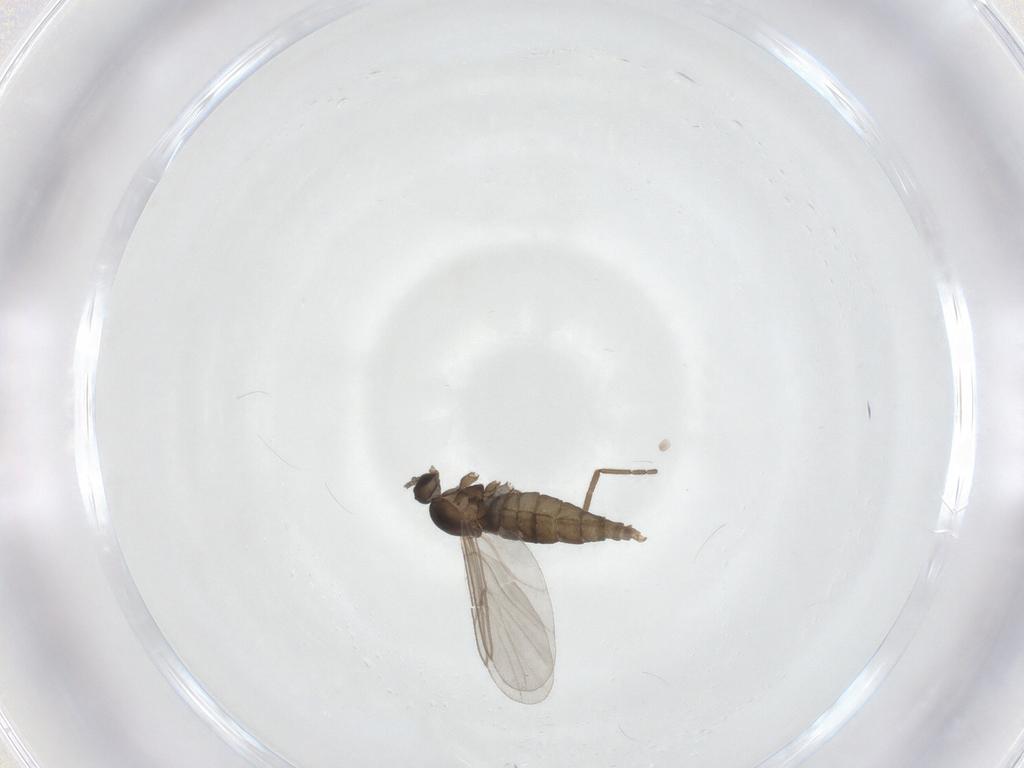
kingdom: Animalia
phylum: Arthropoda
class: Insecta
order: Diptera
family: Cecidomyiidae
